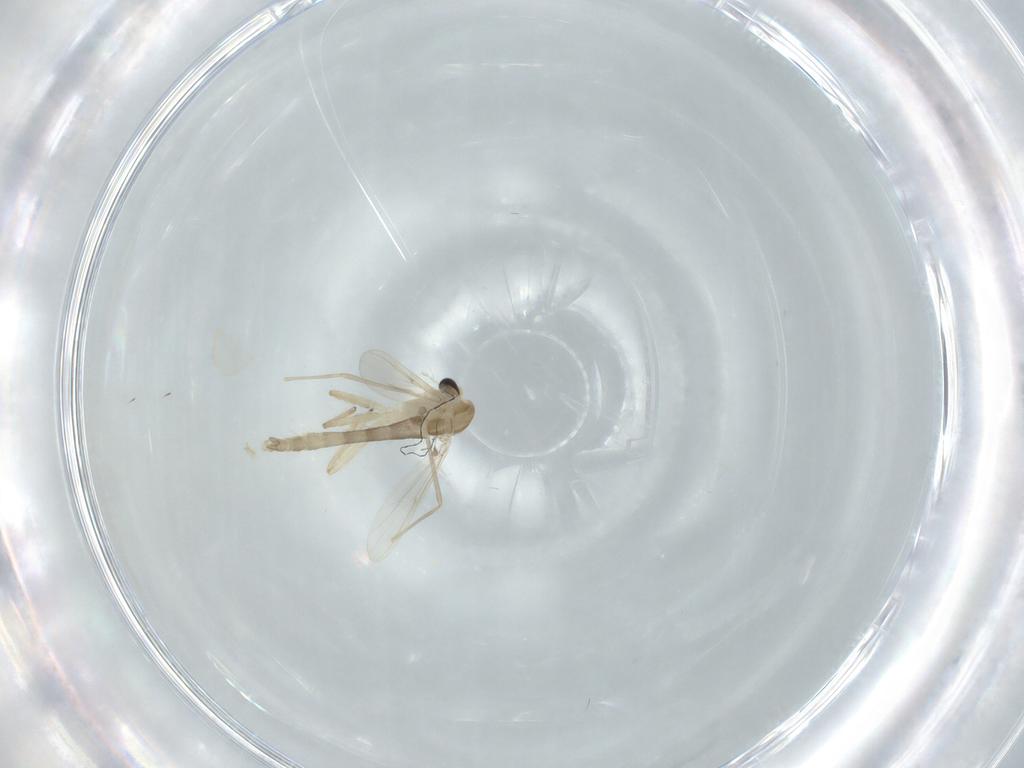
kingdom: Animalia
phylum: Arthropoda
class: Insecta
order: Diptera
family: Chironomidae
